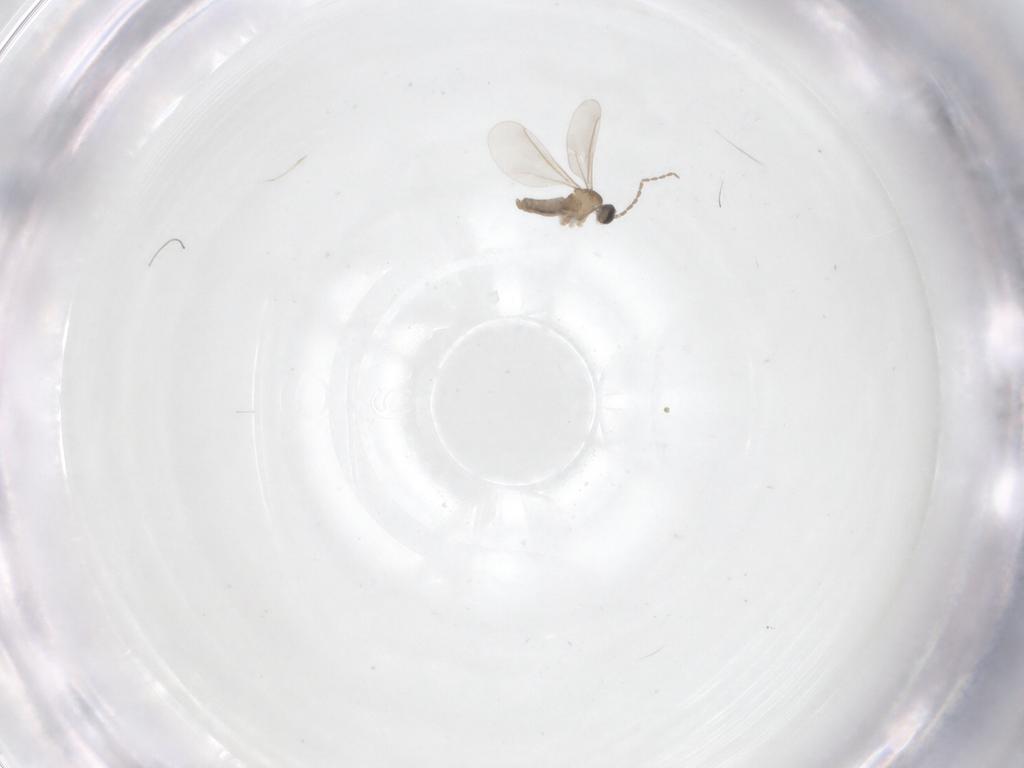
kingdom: Animalia
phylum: Arthropoda
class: Insecta
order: Diptera
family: Cecidomyiidae
